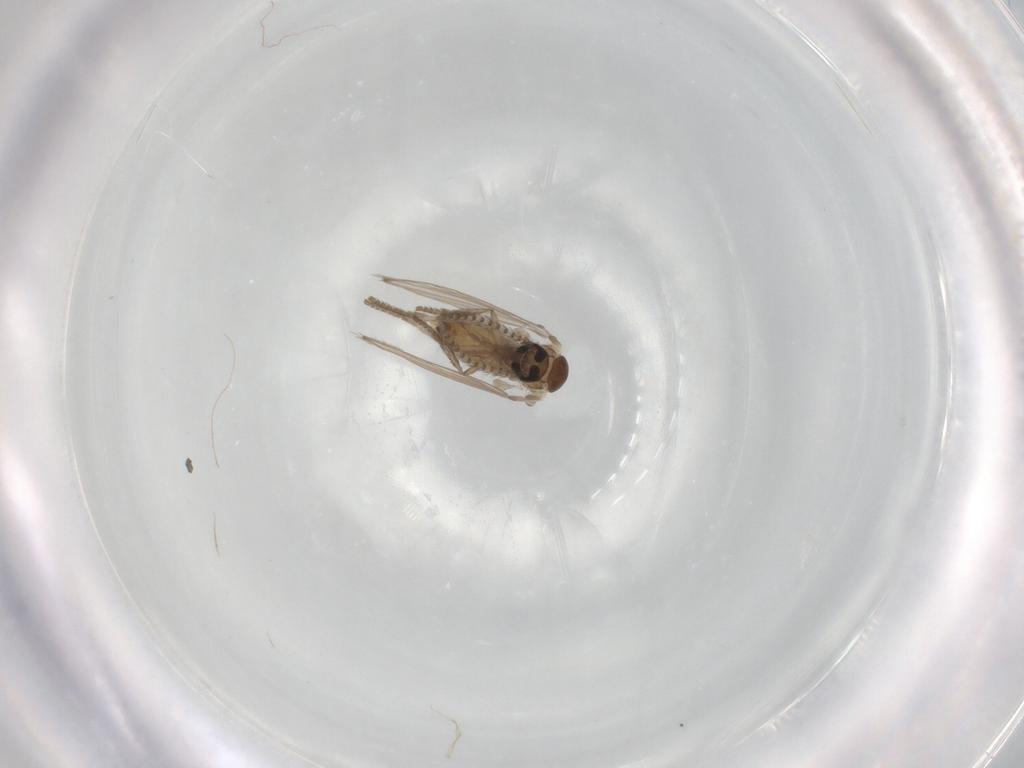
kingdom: Animalia
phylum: Arthropoda
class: Insecta
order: Diptera
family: Psychodidae
